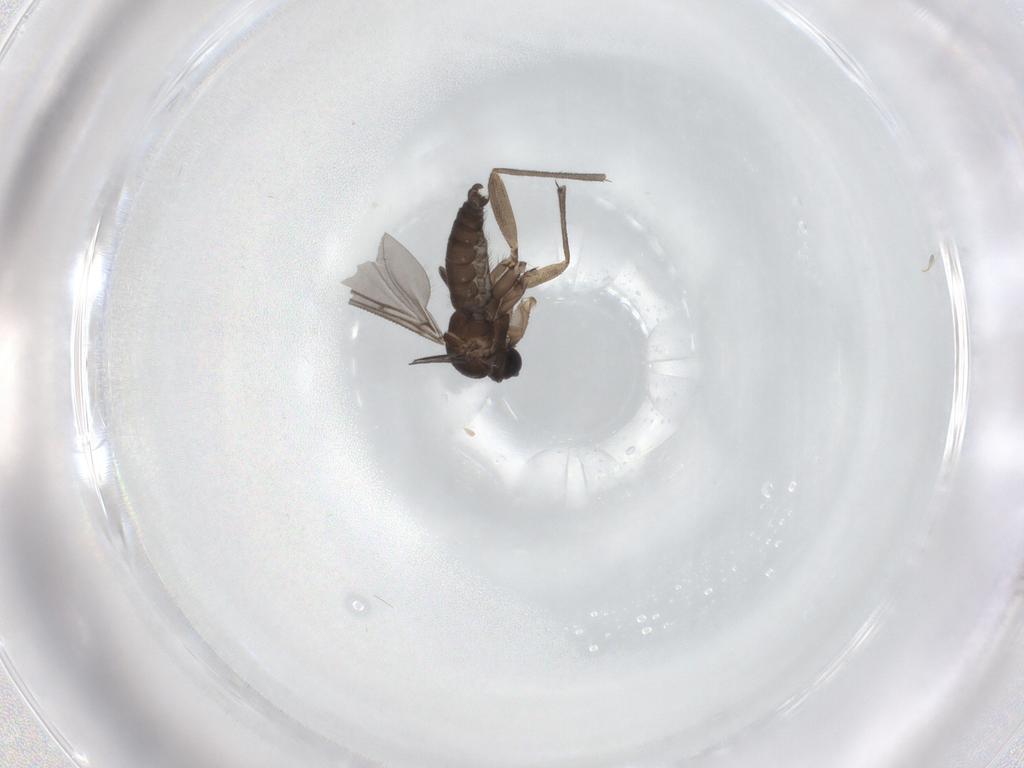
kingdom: Animalia
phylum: Arthropoda
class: Insecta
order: Diptera
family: Sciaridae
